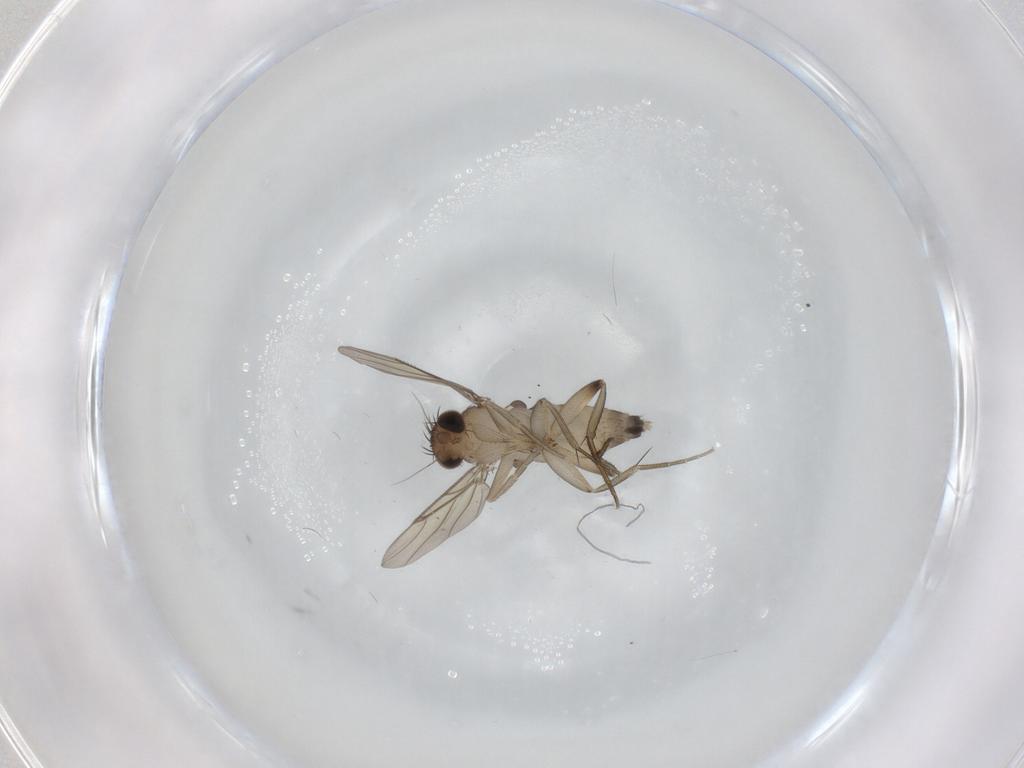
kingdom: Animalia
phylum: Arthropoda
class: Insecta
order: Diptera
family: Phoridae
